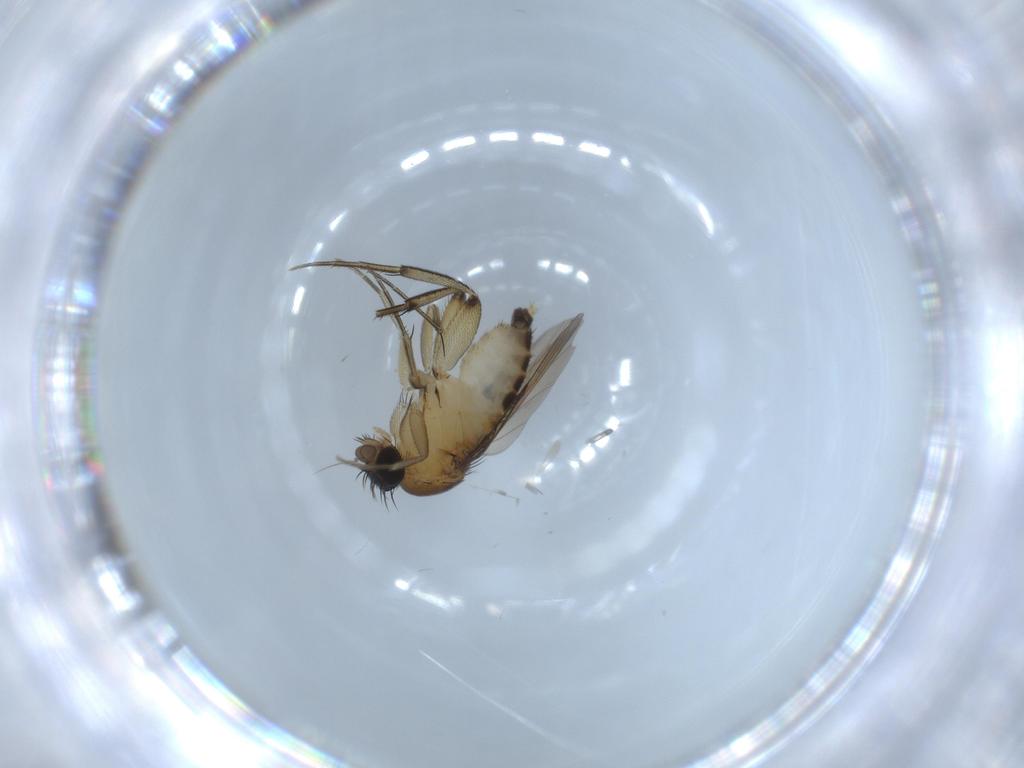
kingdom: Animalia
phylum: Arthropoda
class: Insecta
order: Diptera
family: Phoridae
